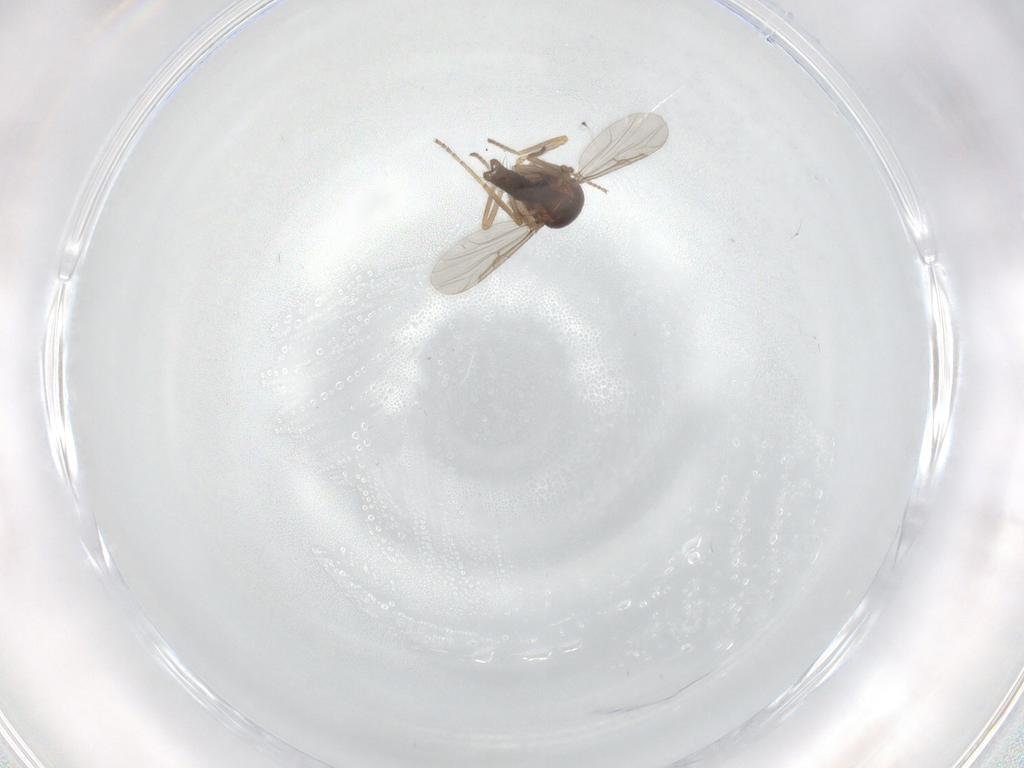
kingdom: Animalia
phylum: Arthropoda
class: Insecta
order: Diptera
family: Ceratopogonidae
